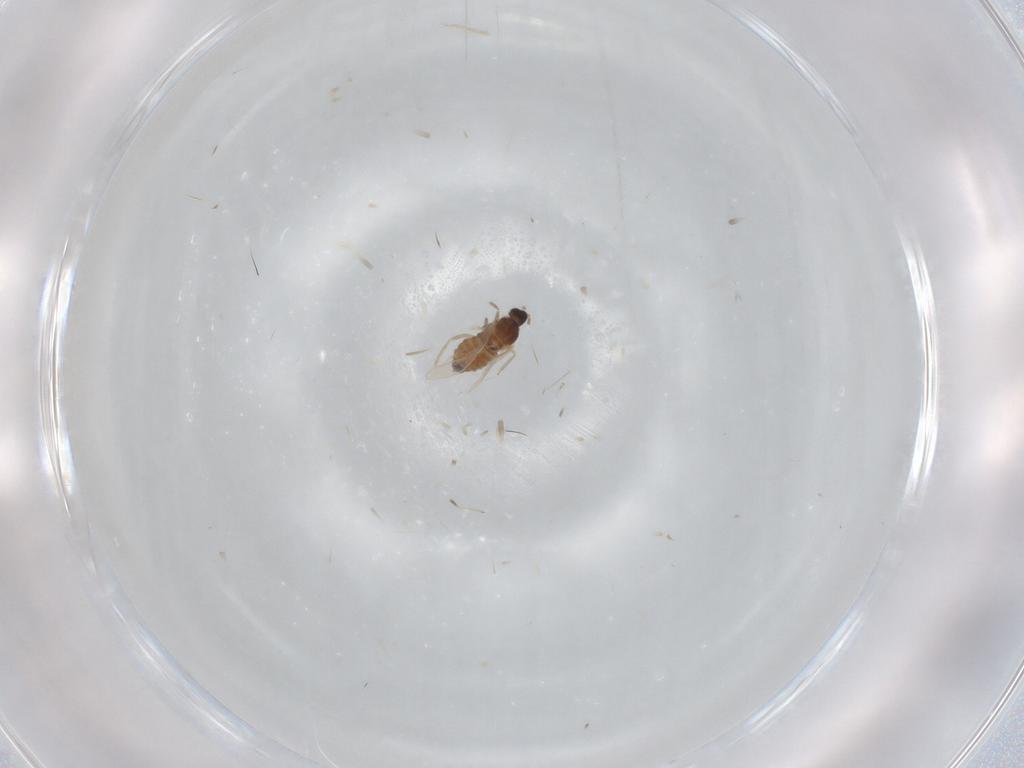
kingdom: Animalia
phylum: Arthropoda
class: Insecta
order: Diptera
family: Cecidomyiidae
